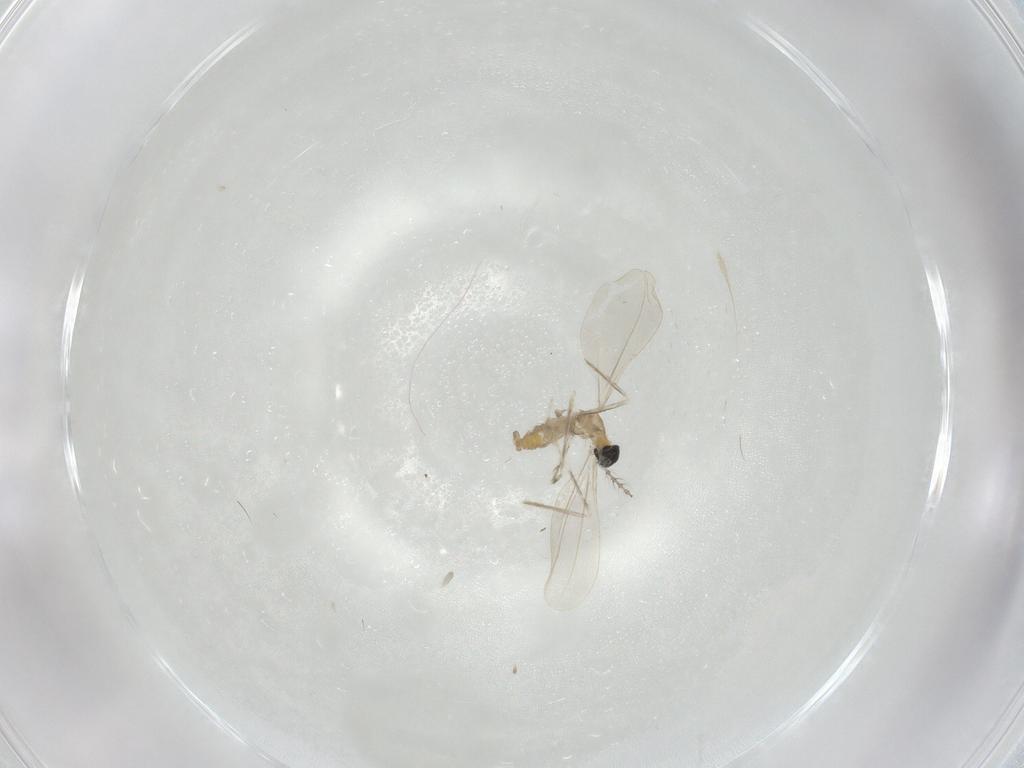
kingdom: Animalia
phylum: Arthropoda
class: Insecta
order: Diptera
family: Cecidomyiidae
